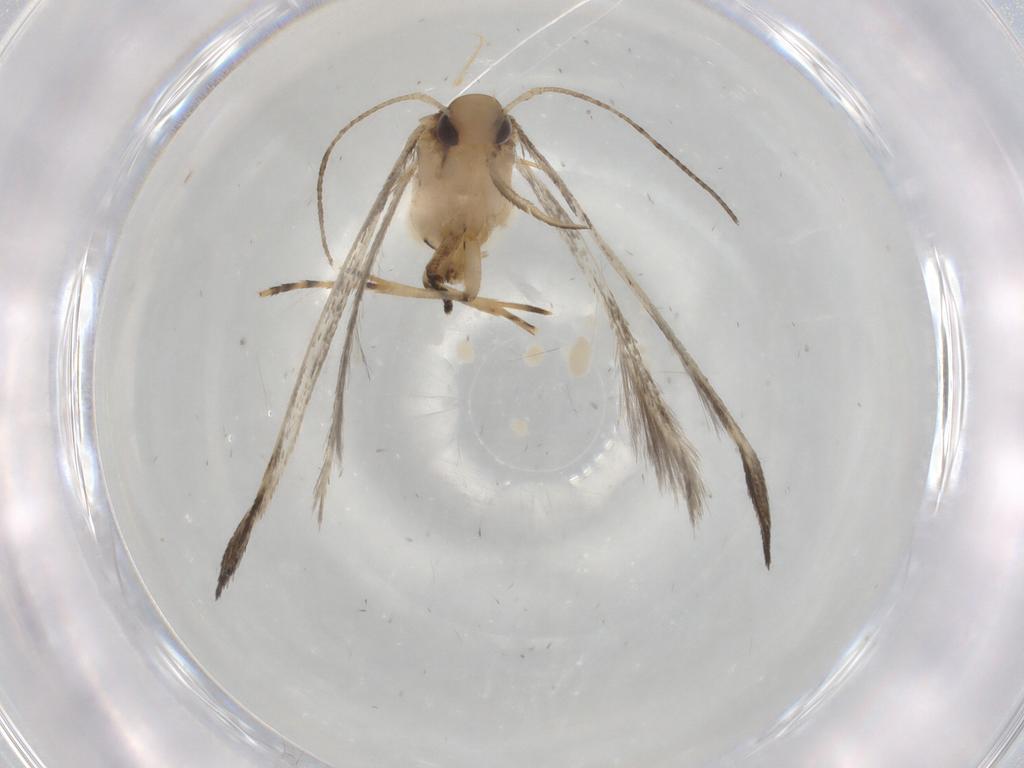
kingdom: Animalia
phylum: Arthropoda
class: Insecta
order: Lepidoptera
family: Cosmopterigidae
